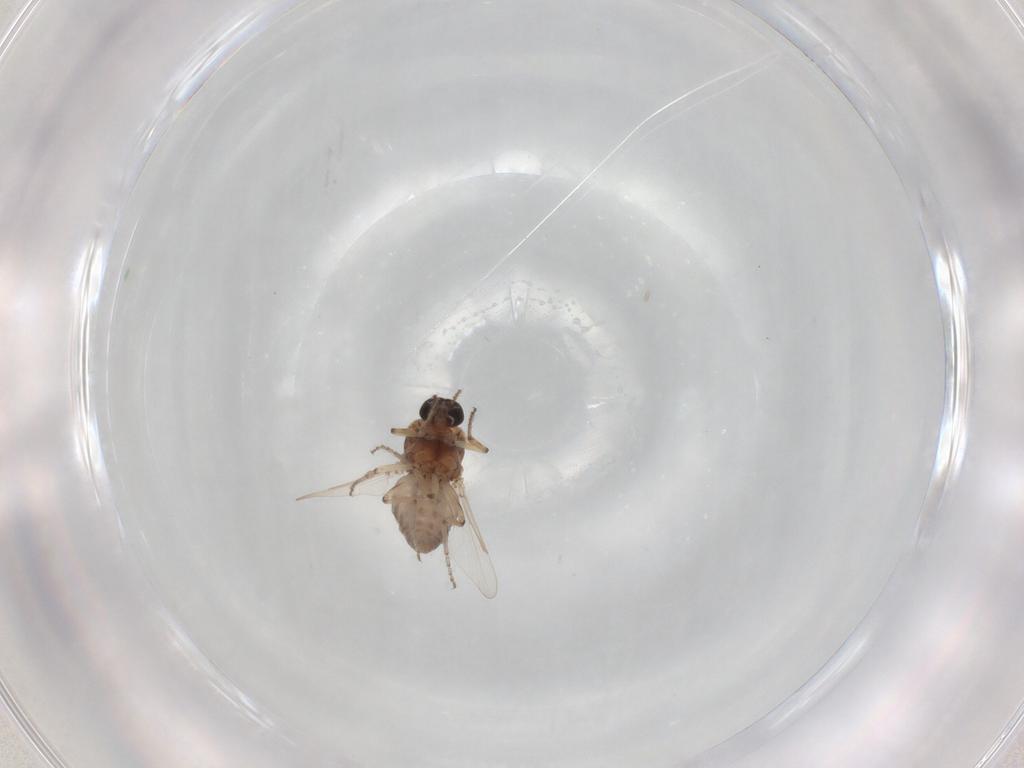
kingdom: Animalia
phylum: Arthropoda
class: Insecta
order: Diptera
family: Ceratopogonidae
